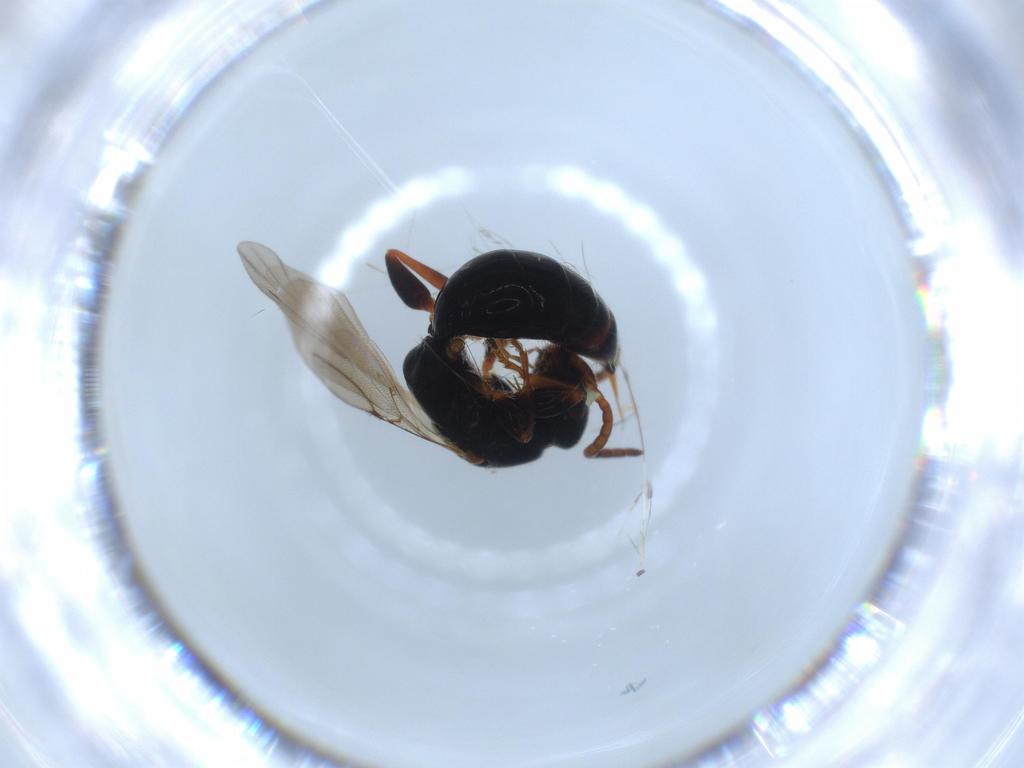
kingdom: Animalia
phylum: Arthropoda
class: Insecta
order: Hymenoptera
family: Bethylidae
